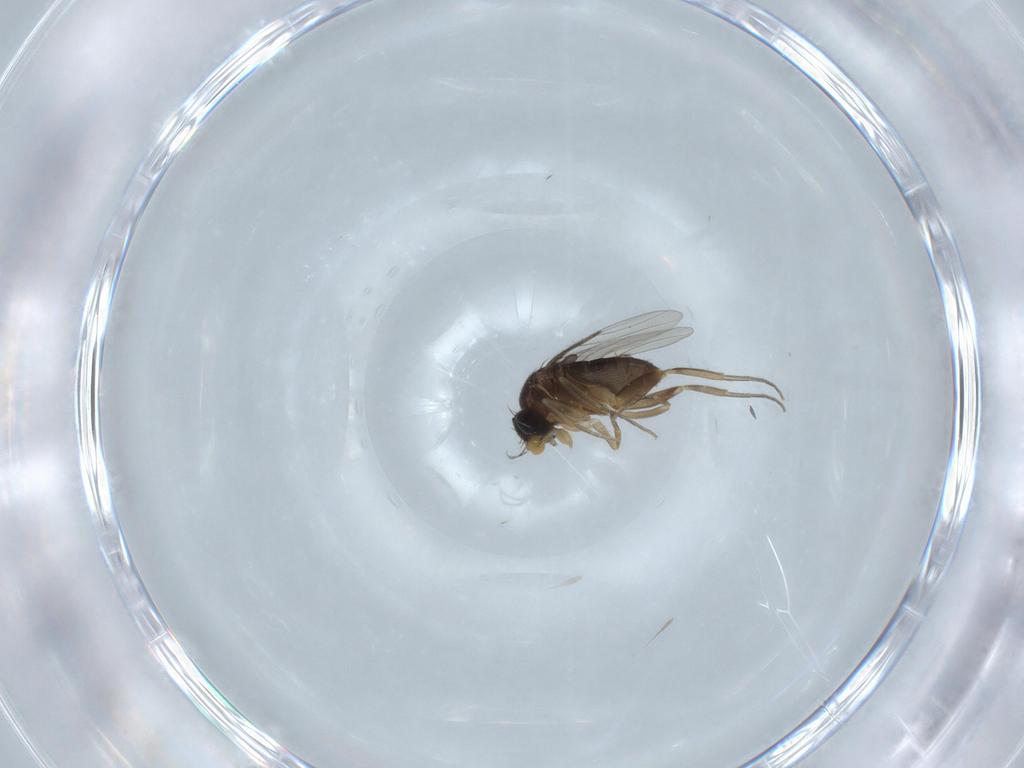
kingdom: Animalia
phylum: Arthropoda
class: Insecta
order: Diptera
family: Phoridae
